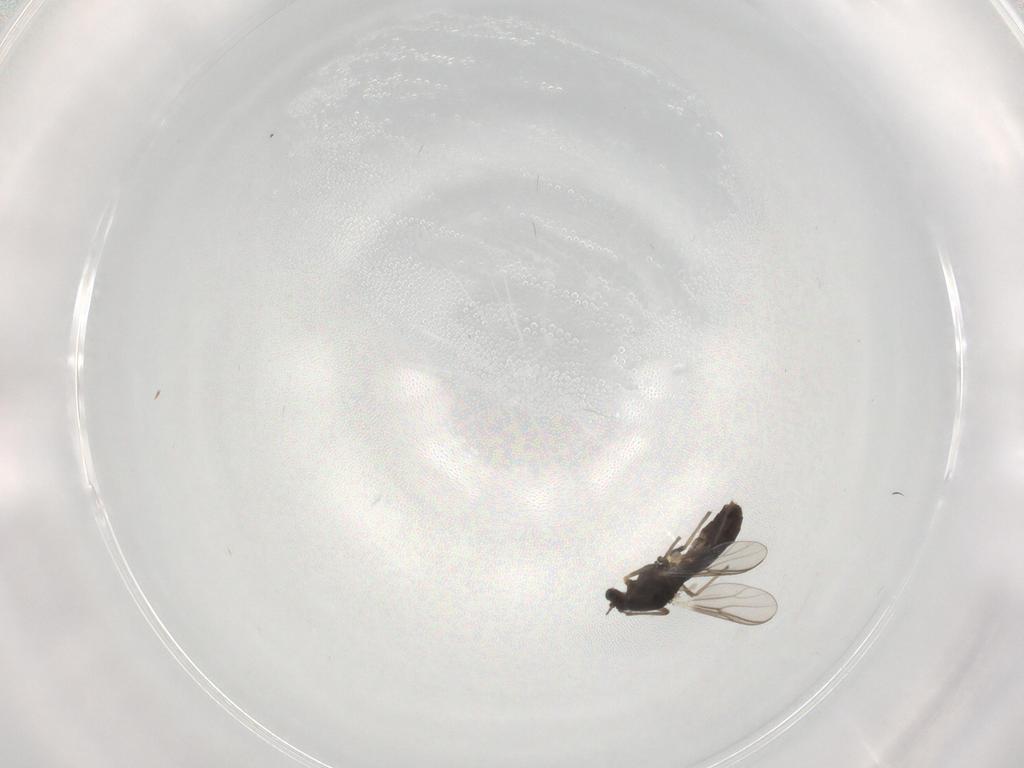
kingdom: Animalia
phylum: Arthropoda
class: Insecta
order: Diptera
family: Chironomidae
